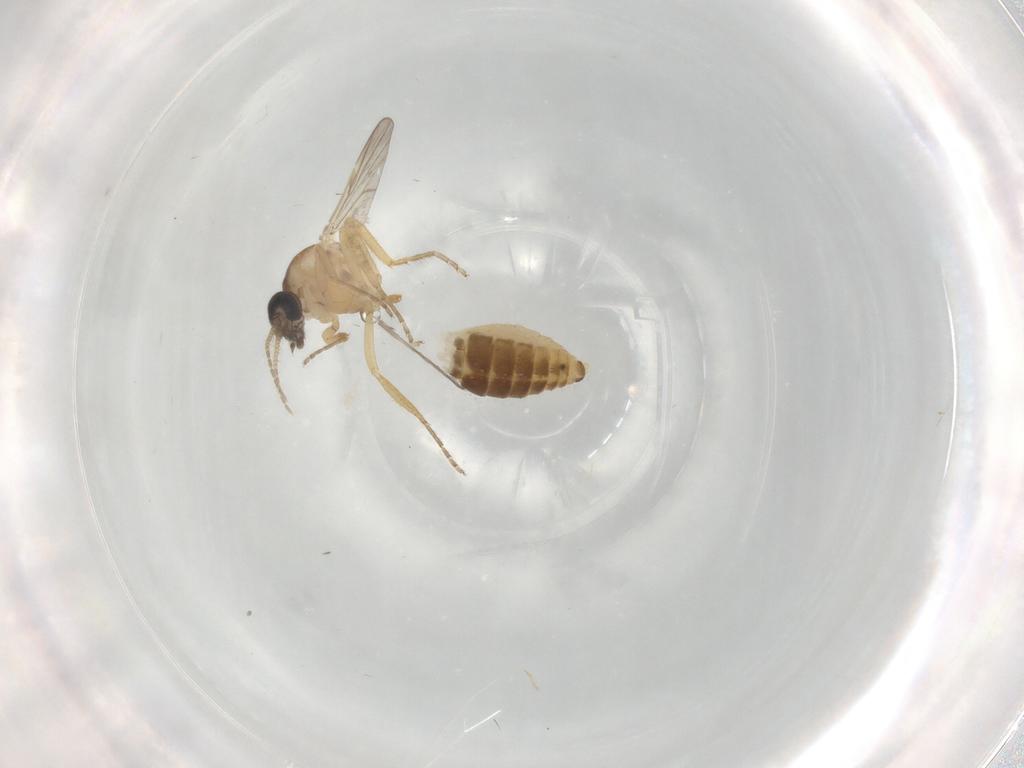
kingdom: Animalia
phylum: Arthropoda
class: Insecta
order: Diptera
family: Ceratopogonidae
